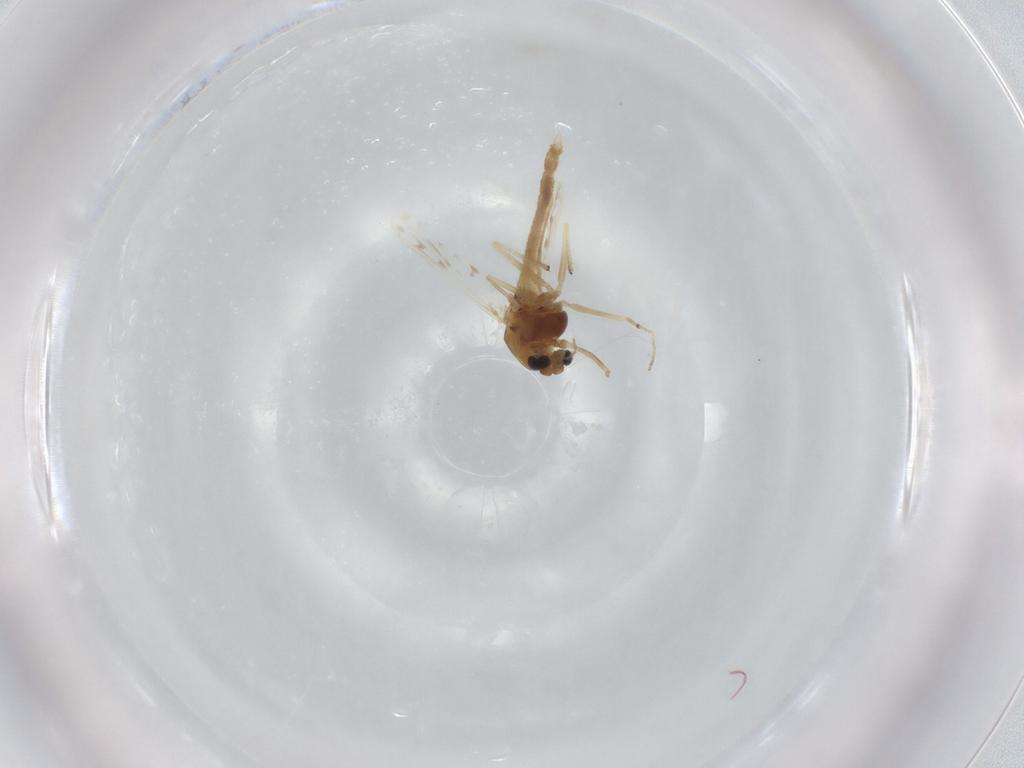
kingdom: Animalia
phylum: Arthropoda
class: Insecta
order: Diptera
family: Ceratopogonidae
